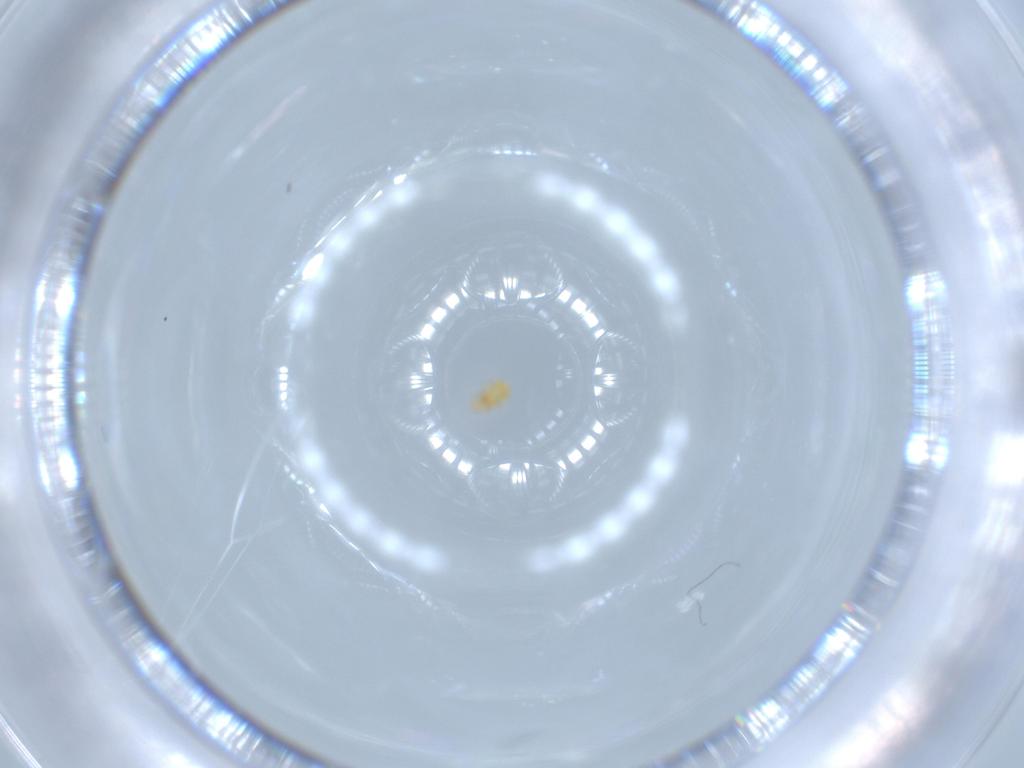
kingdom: Animalia
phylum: Arthropoda
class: Insecta
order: Thysanoptera
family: Thripidae
